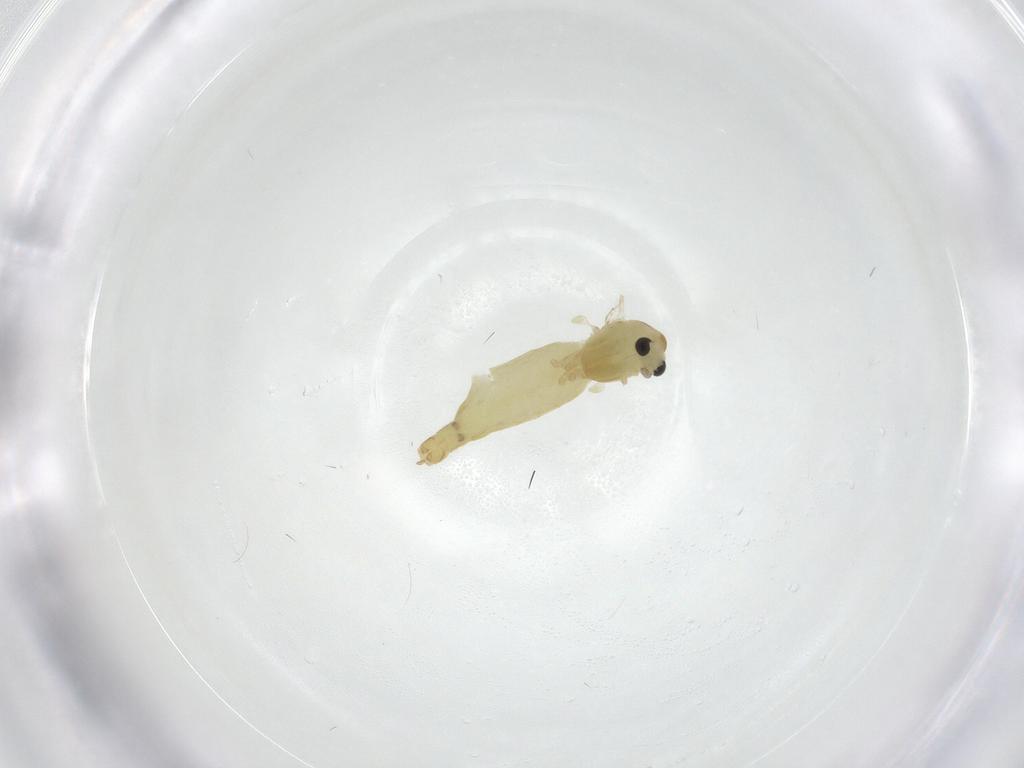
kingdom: Animalia
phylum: Arthropoda
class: Insecta
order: Diptera
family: Chironomidae
